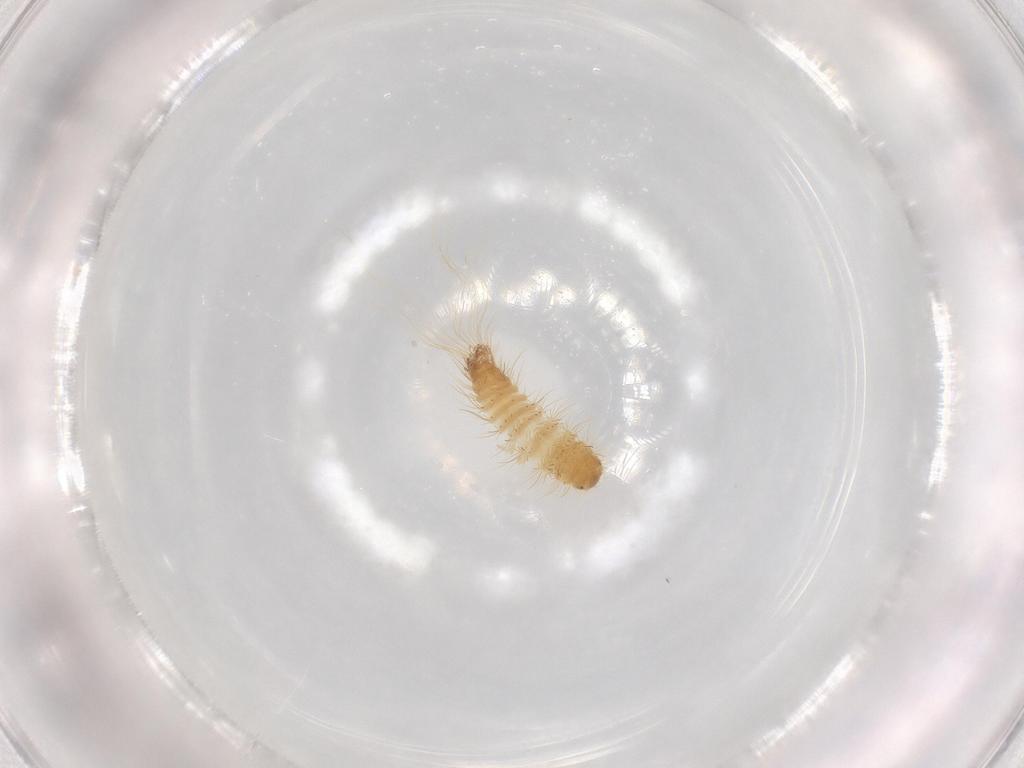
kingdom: Animalia
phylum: Arthropoda
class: Insecta
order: Coleoptera
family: Dermestidae
